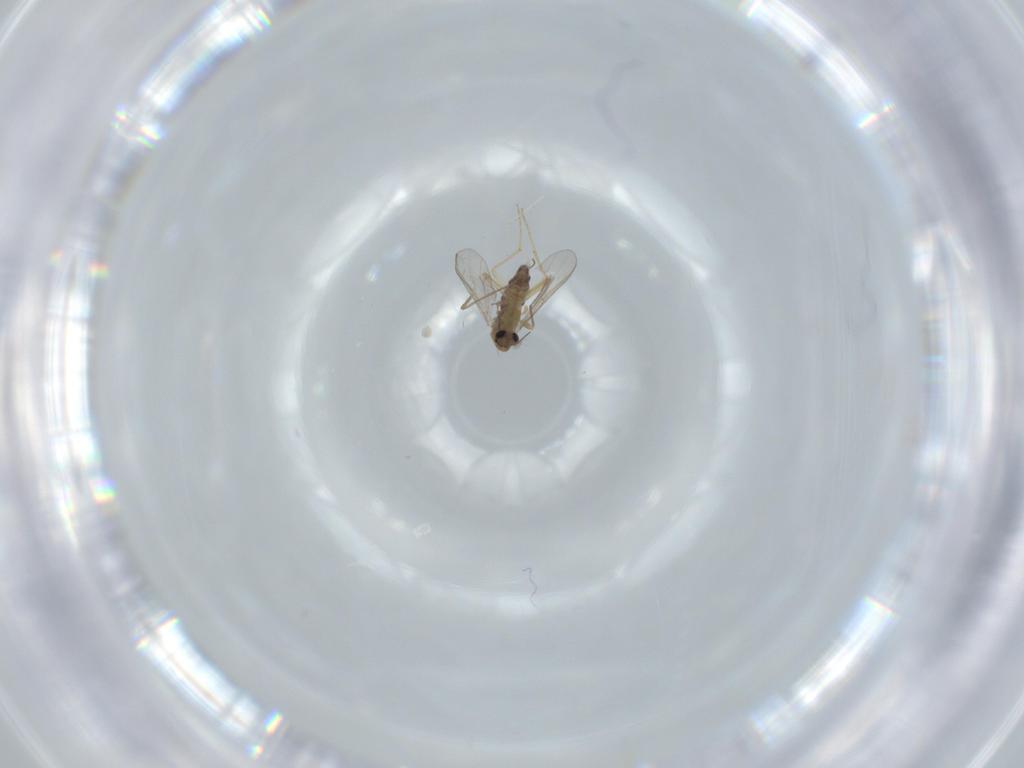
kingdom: Animalia
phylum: Arthropoda
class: Insecta
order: Diptera
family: Chironomidae
